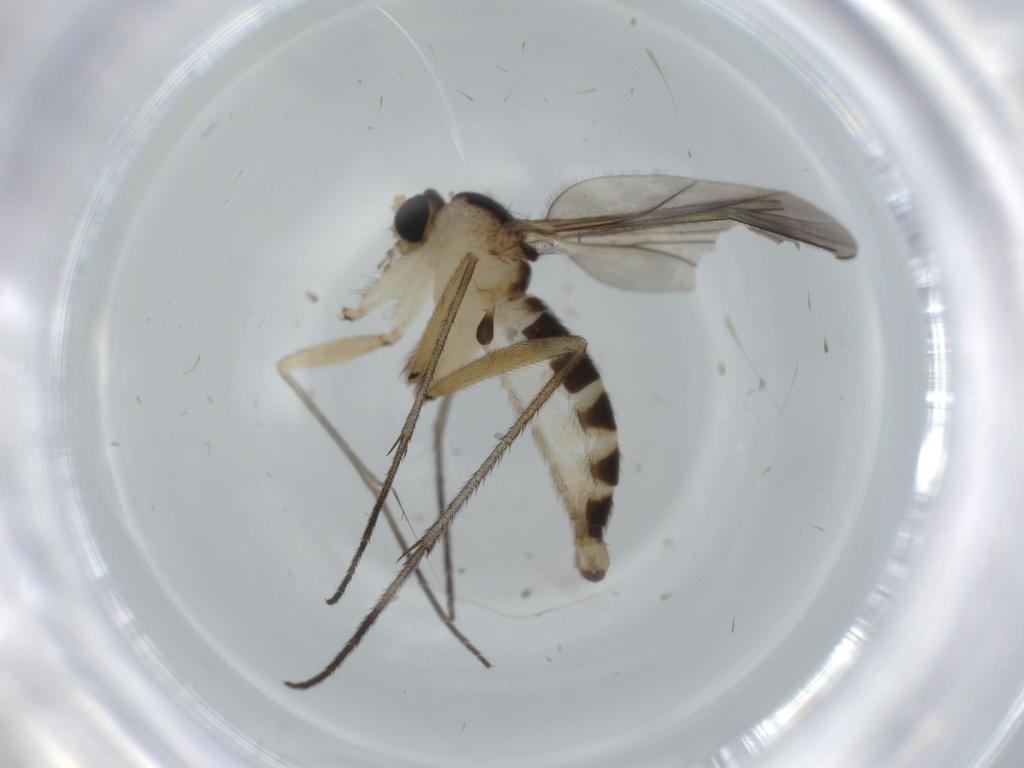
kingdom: Animalia
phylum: Arthropoda
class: Insecta
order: Diptera
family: Sciaridae
